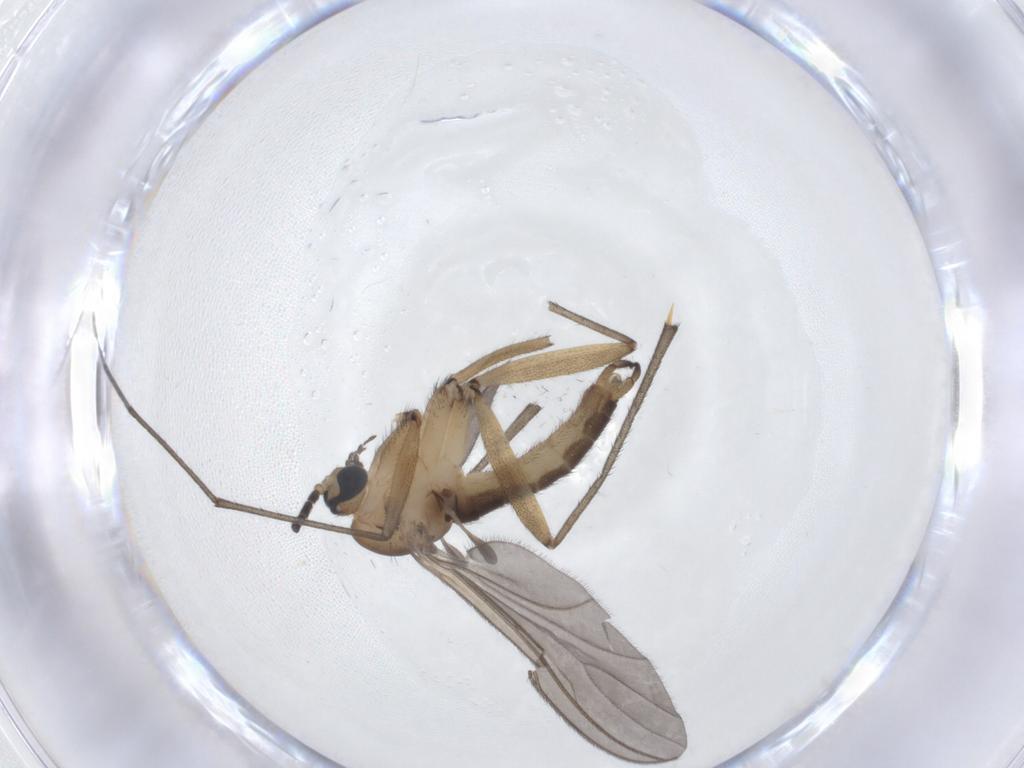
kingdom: Animalia
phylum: Arthropoda
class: Insecta
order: Diptera
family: Sciaridae
